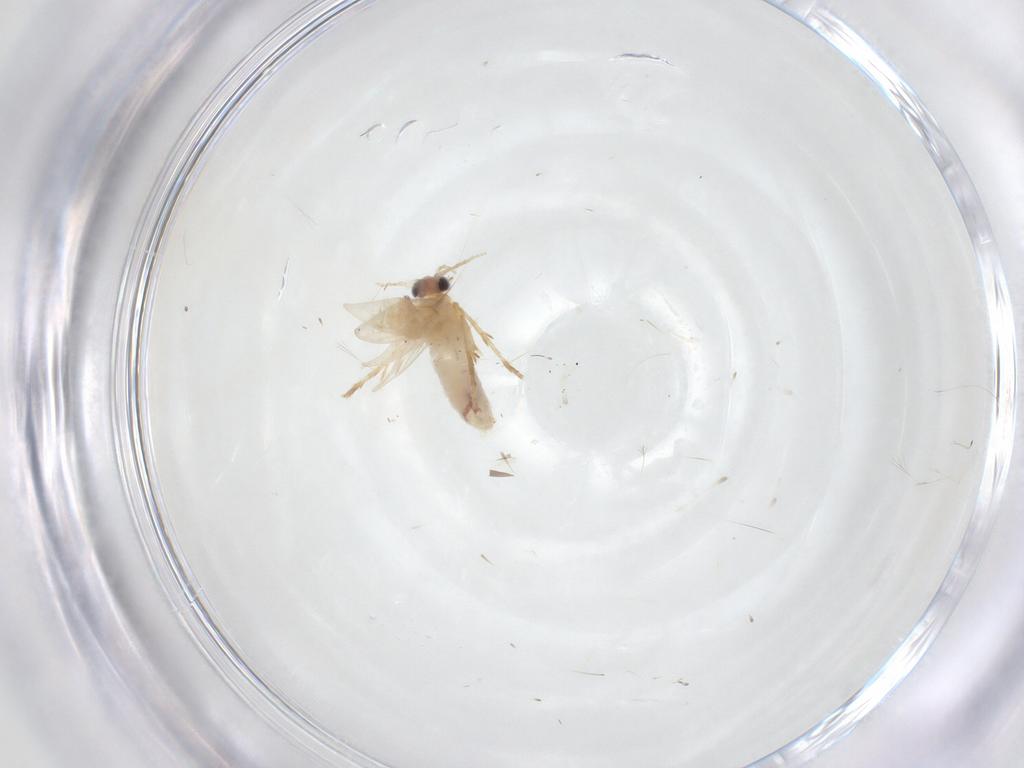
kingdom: Animalia
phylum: Arthropoda
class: Insecta
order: Lepidoptera
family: Nepticulidae
